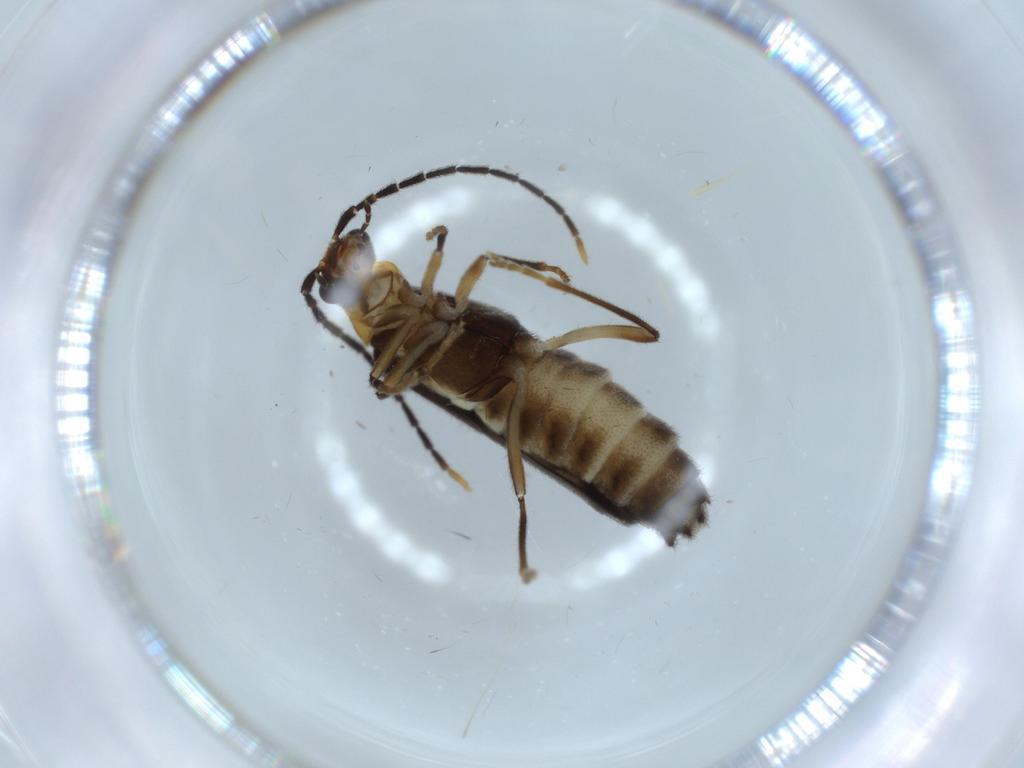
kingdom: Animalia
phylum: Arthropoda
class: Insecta
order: Coleoptera
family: Cantharidae
